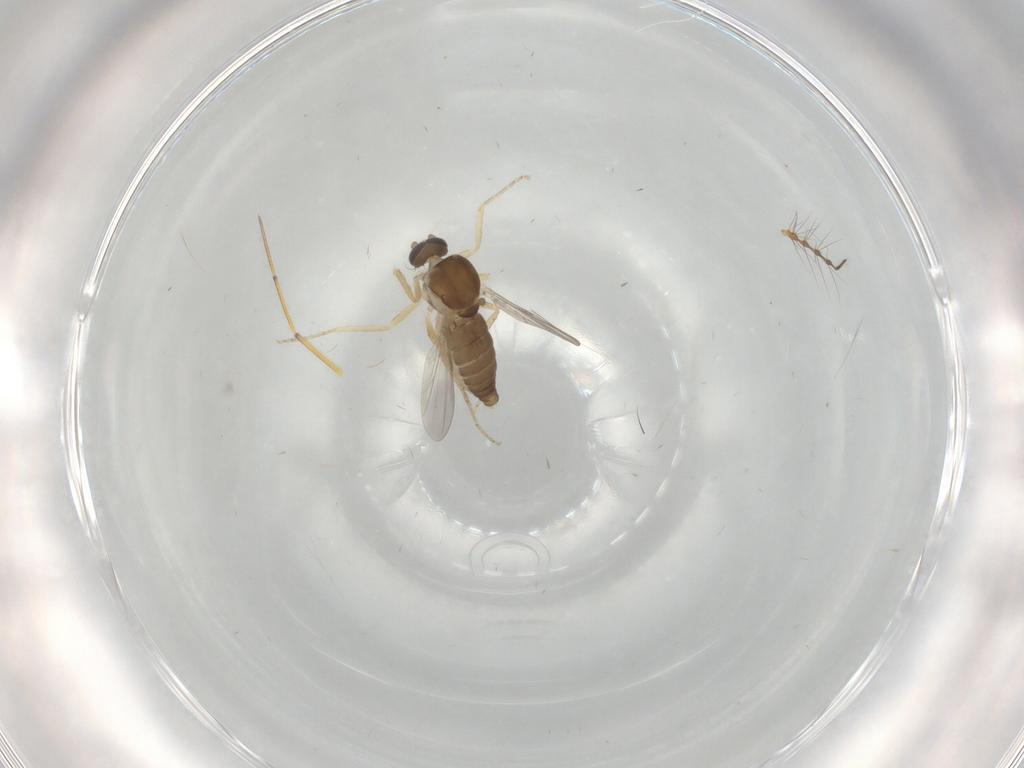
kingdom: Animalia
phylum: Arthropoda
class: Insecta
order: Diptera
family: Ceratopogonidae
